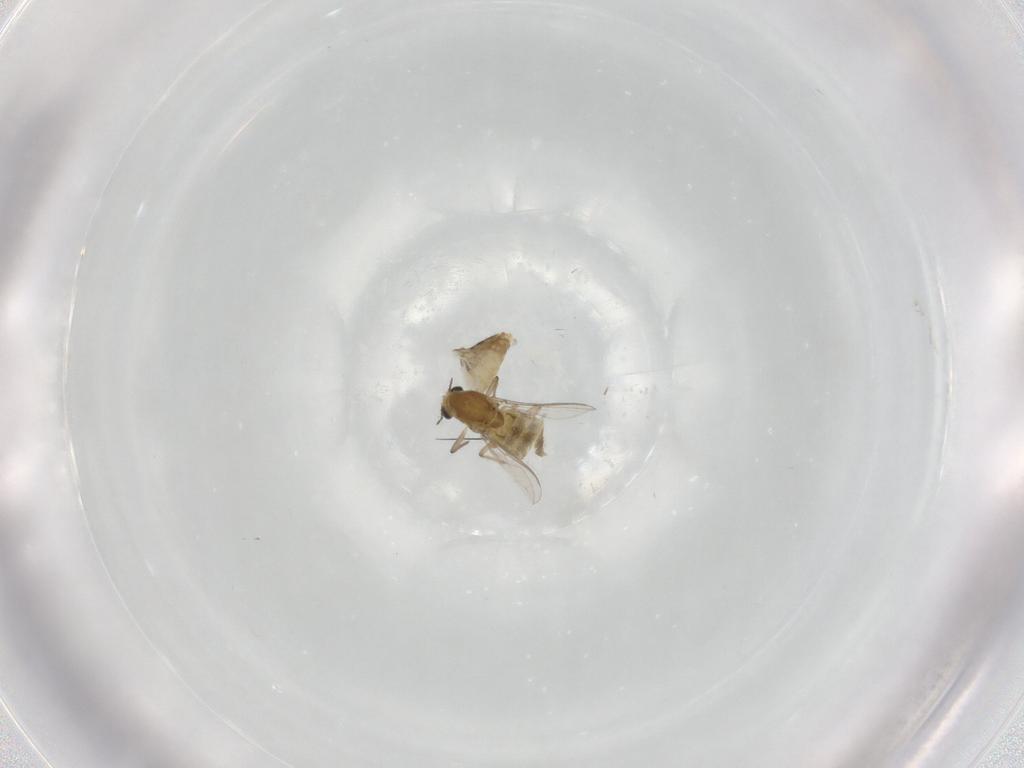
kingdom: Animalia
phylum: Arthropoda
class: Insecta
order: Diptera
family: Chironomidae
